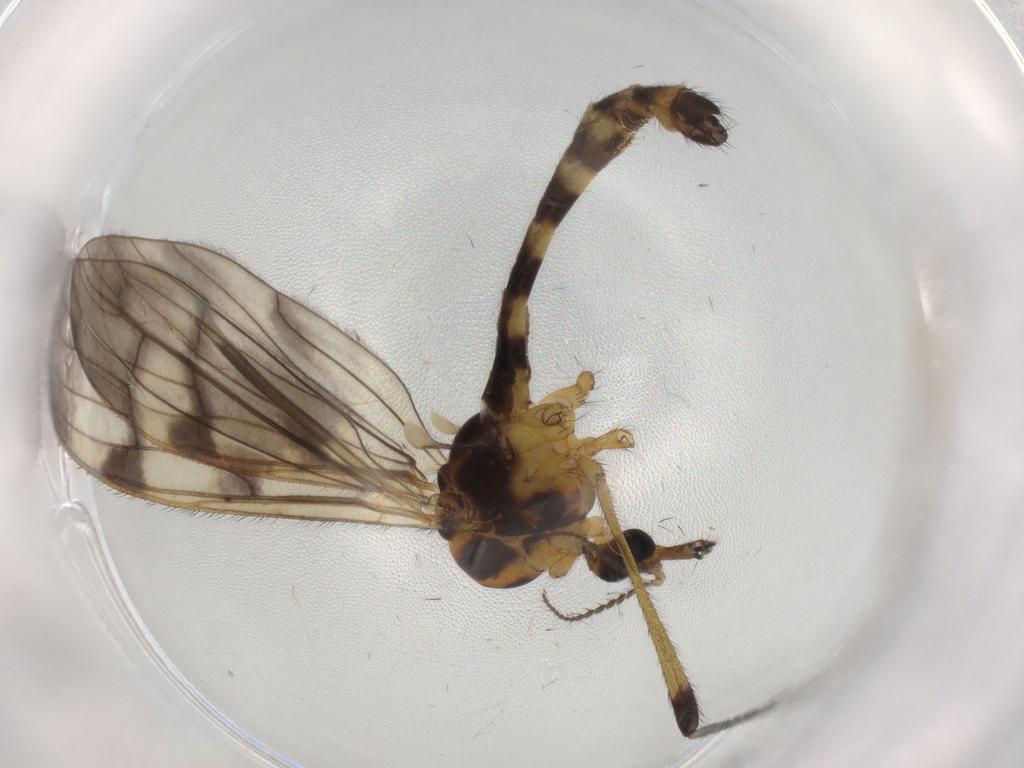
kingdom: Animalia
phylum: Arthropoda
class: Insecta
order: Diptera
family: Limoniidae
